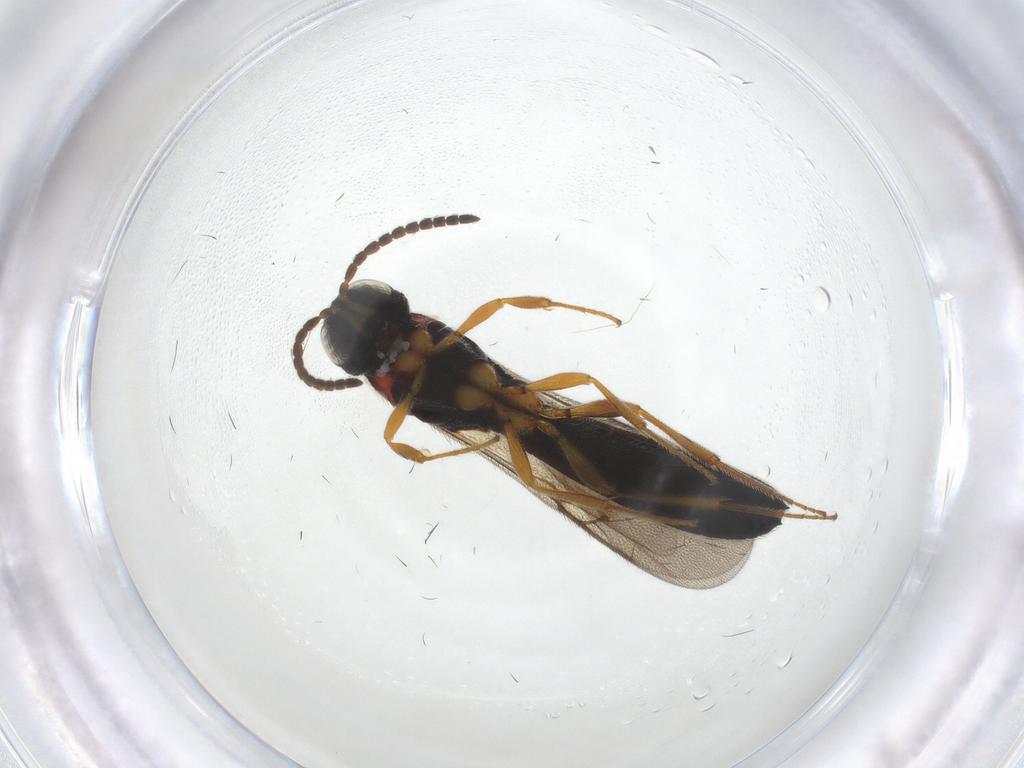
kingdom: Animalia
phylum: Arthropoda
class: Insecta
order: Hymenoptera
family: Scelionidae
